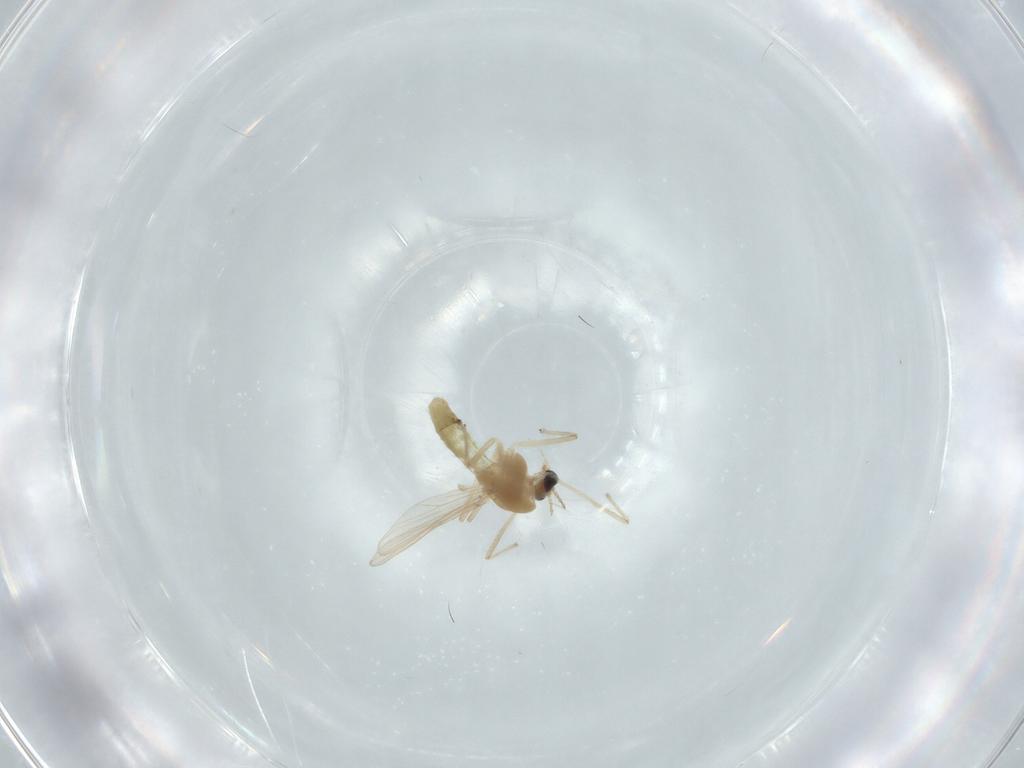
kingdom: Animalia
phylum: Arthropoda
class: Insecta
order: Diptera
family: Chironomidae
